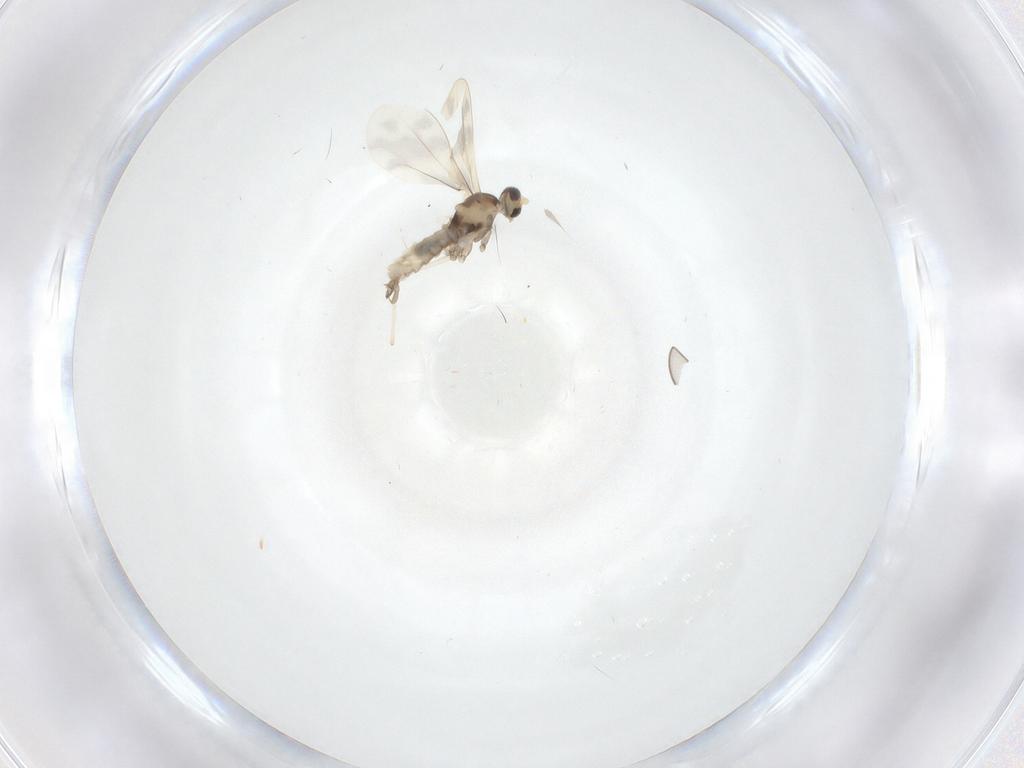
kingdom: Animalia
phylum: Arthropoda
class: Insecta
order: Diptera
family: Cecidomyiidae
